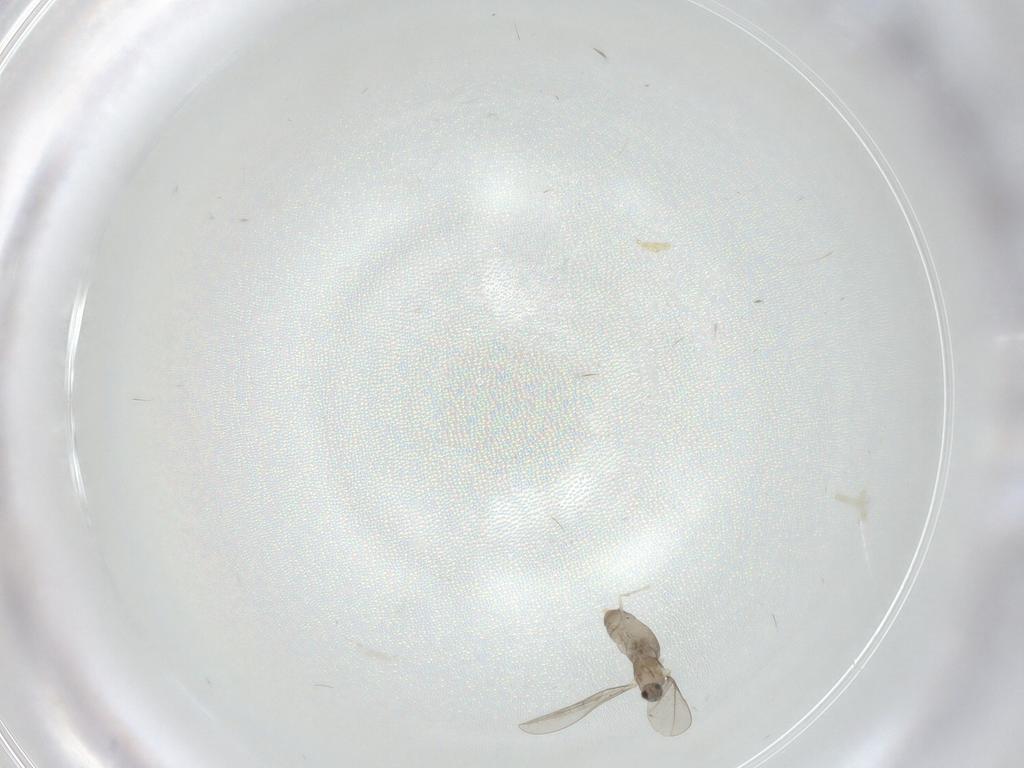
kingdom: Animalia
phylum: Arthropoda
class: Insecta
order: Diptera
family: Cecidomyiidae
